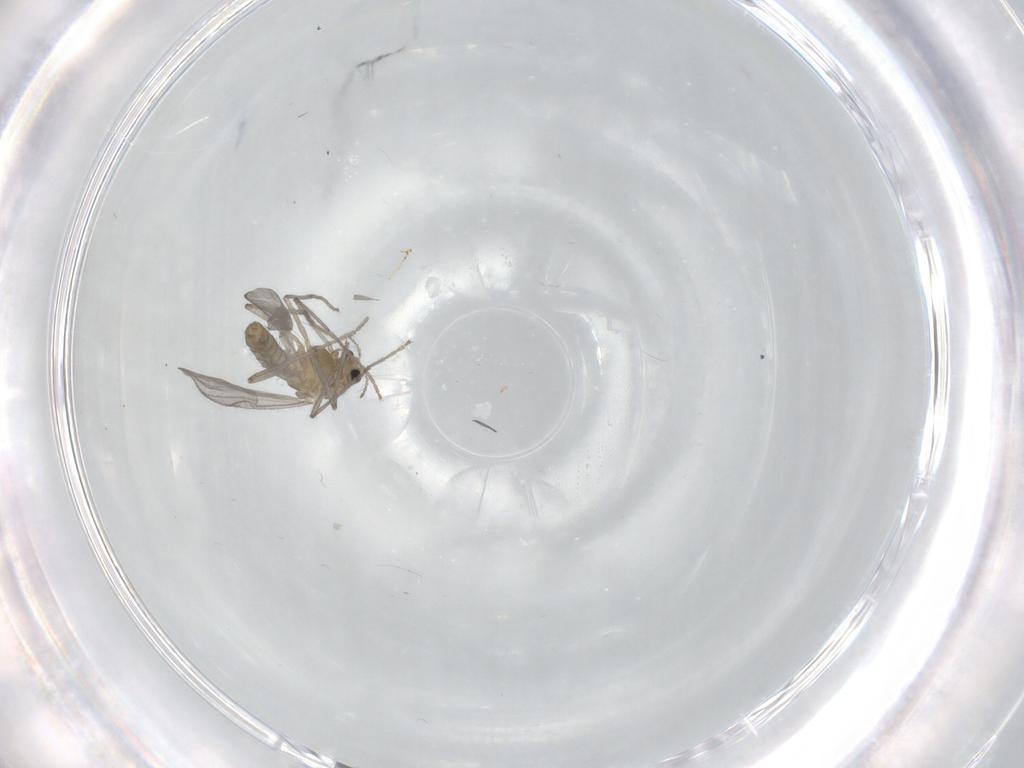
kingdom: Animalia
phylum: Arthropoda
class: Insecta
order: Diptera
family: Chironomidae
